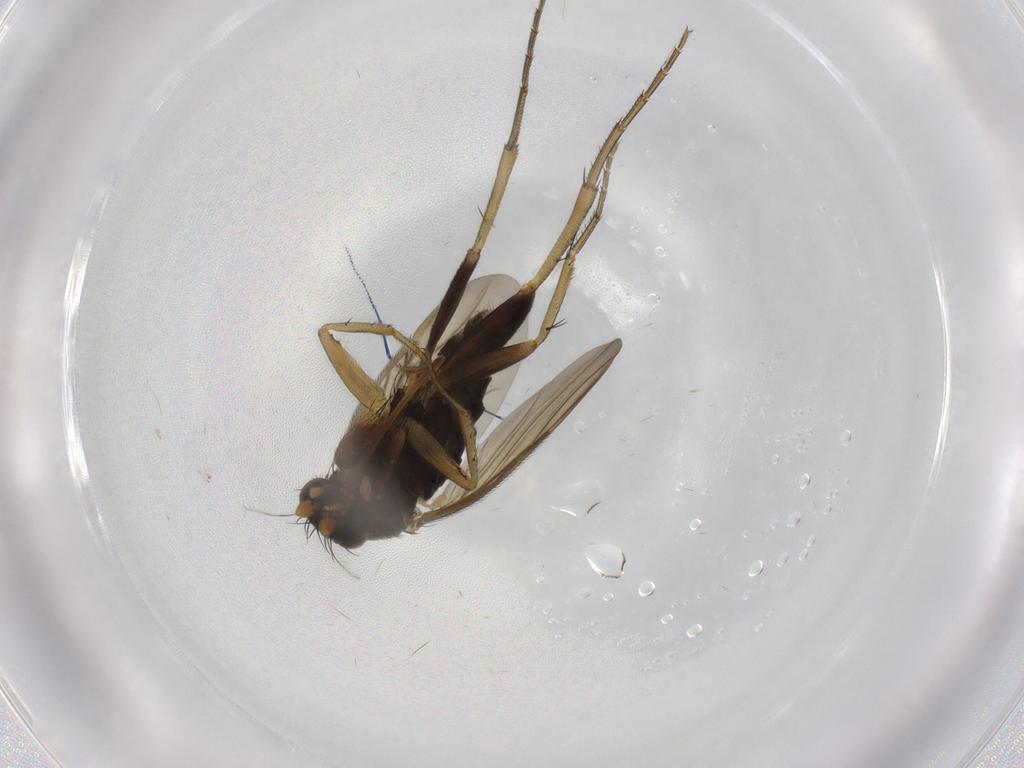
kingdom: Animalia
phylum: Arthropoda
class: Insecta
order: Diptera
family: Phoridae
